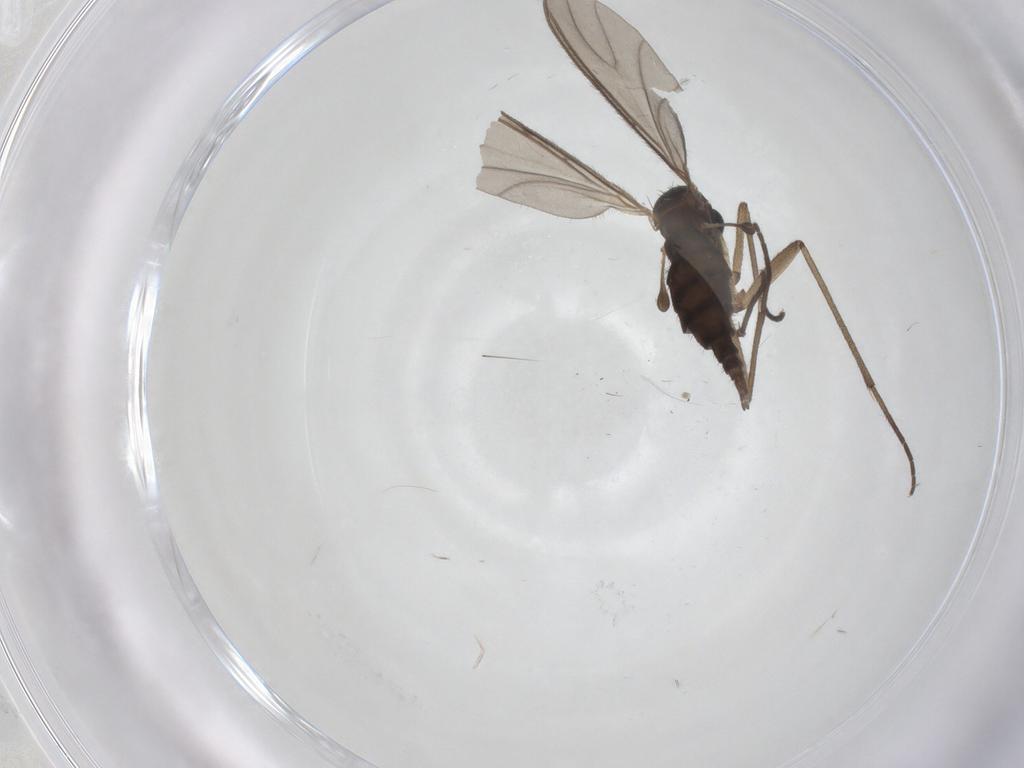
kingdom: Animalia
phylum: Arthropoda
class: Insecta
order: Diptera
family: Sciaridae
